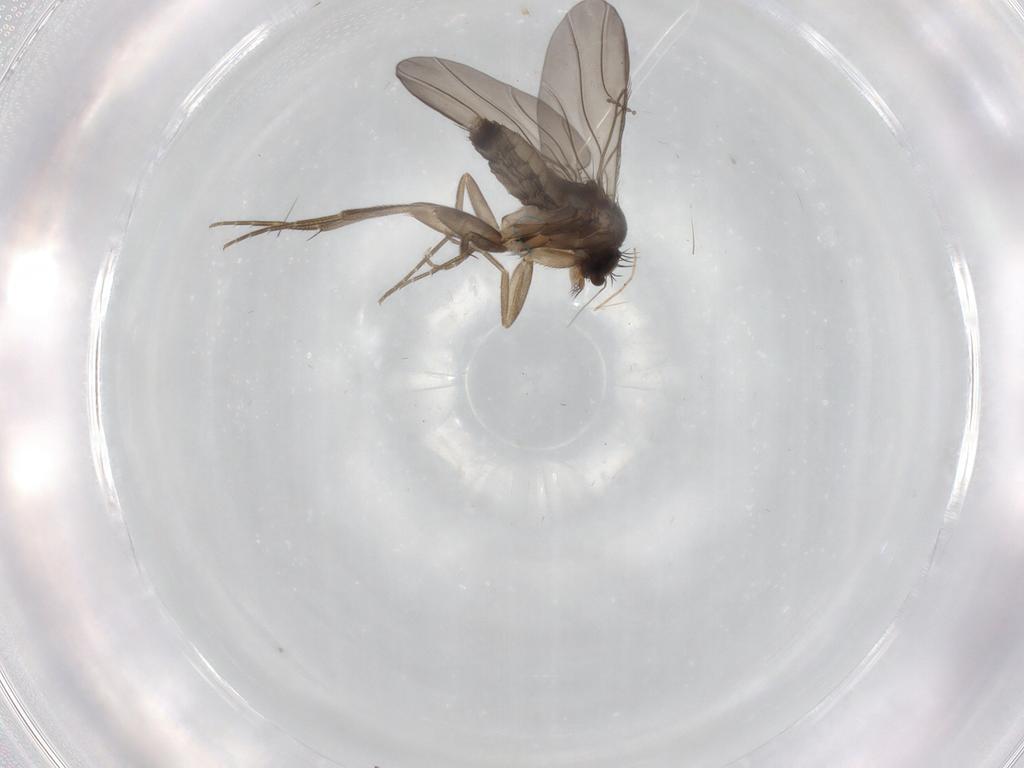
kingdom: Animalia
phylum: Arthropoda
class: Insecta
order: Diptera
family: Phoridae
